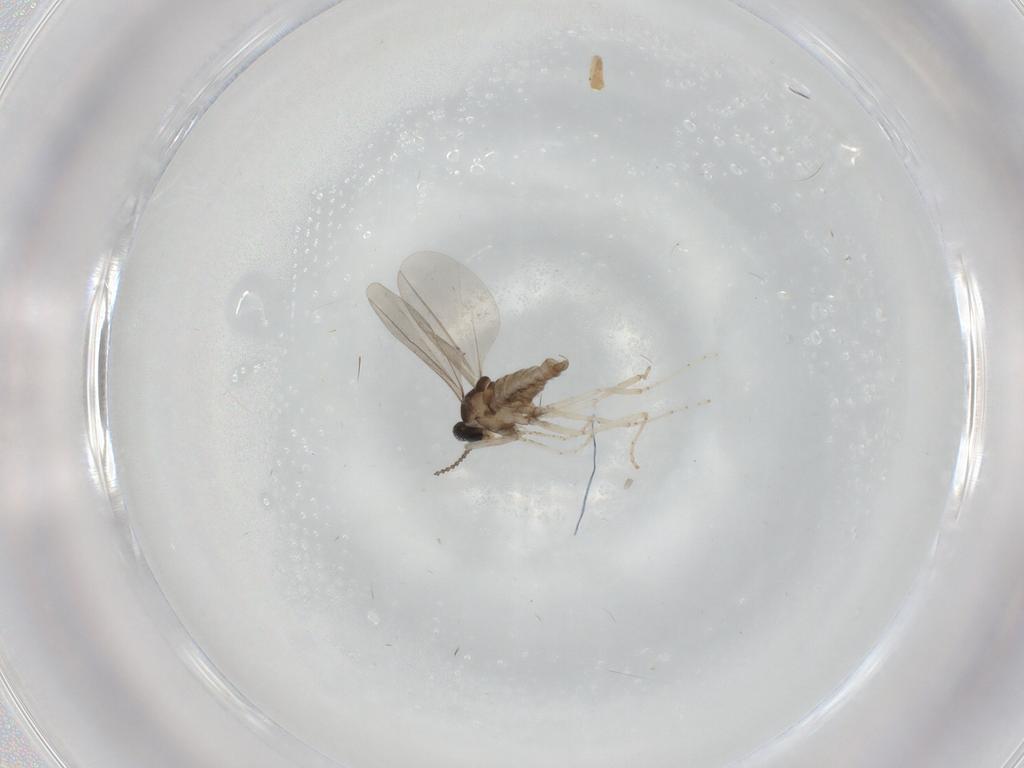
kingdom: Animalia
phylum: Arthropoda
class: Insecta
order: Diptera
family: Cecidomyiidae
